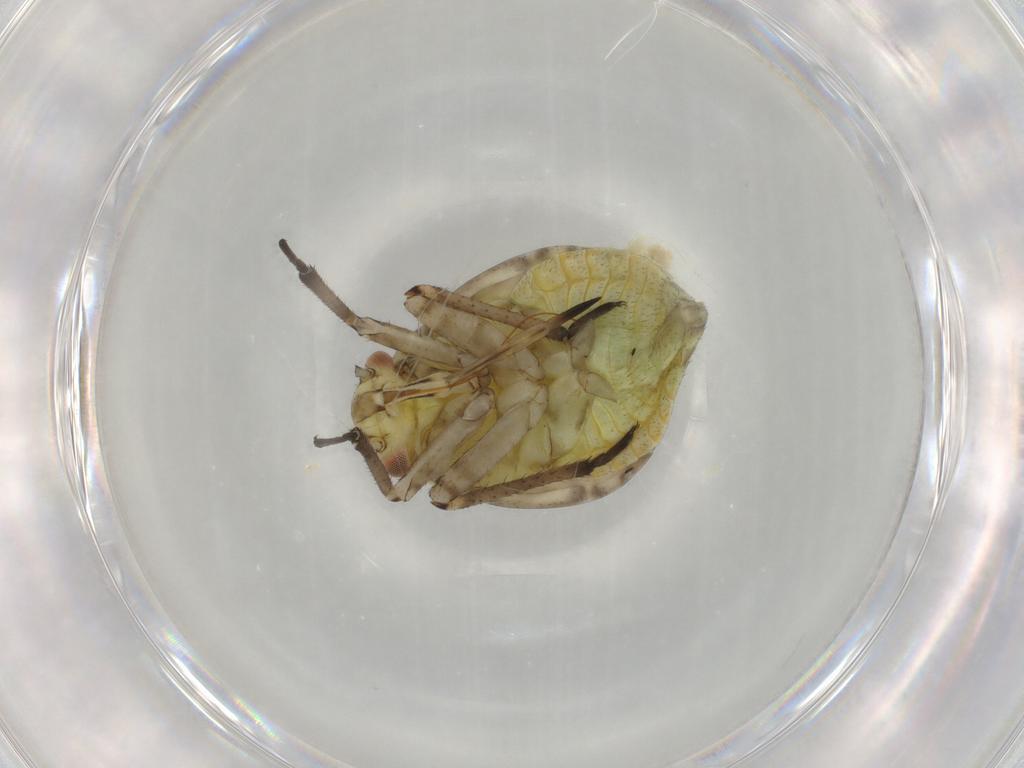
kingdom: Animalia
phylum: Arthropoda
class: Insecta
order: Hemiptera
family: Miridae
